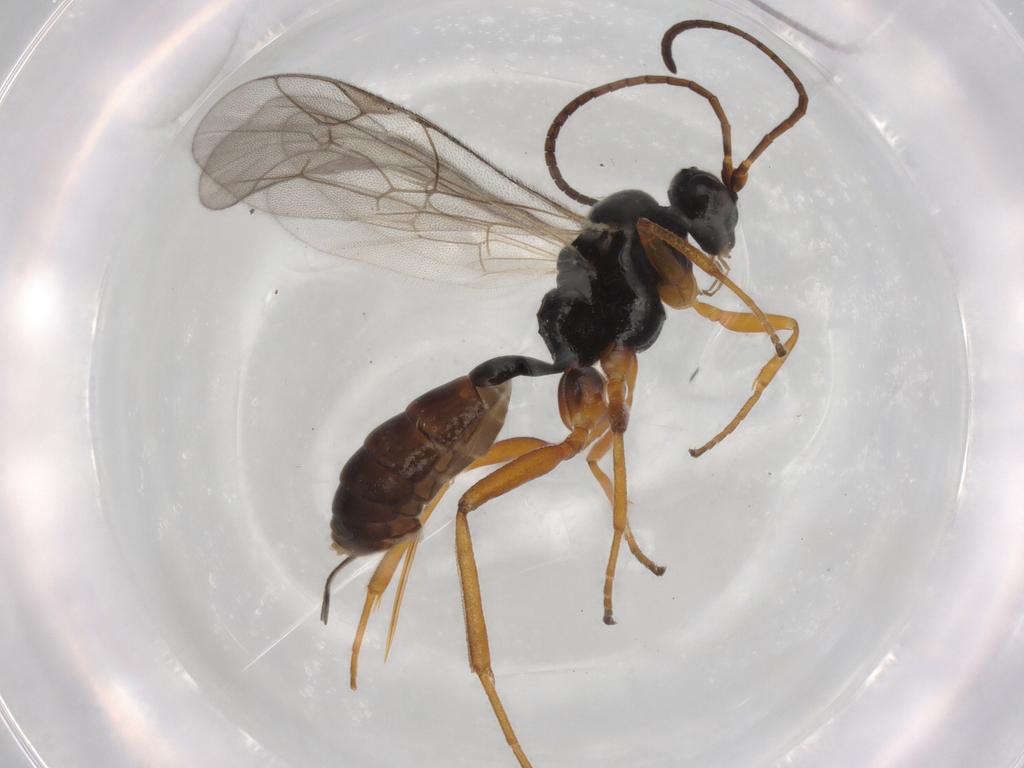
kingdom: Animalia
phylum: Arthropoda
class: Insecta
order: Hymenoptera
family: Ichneumonidae
